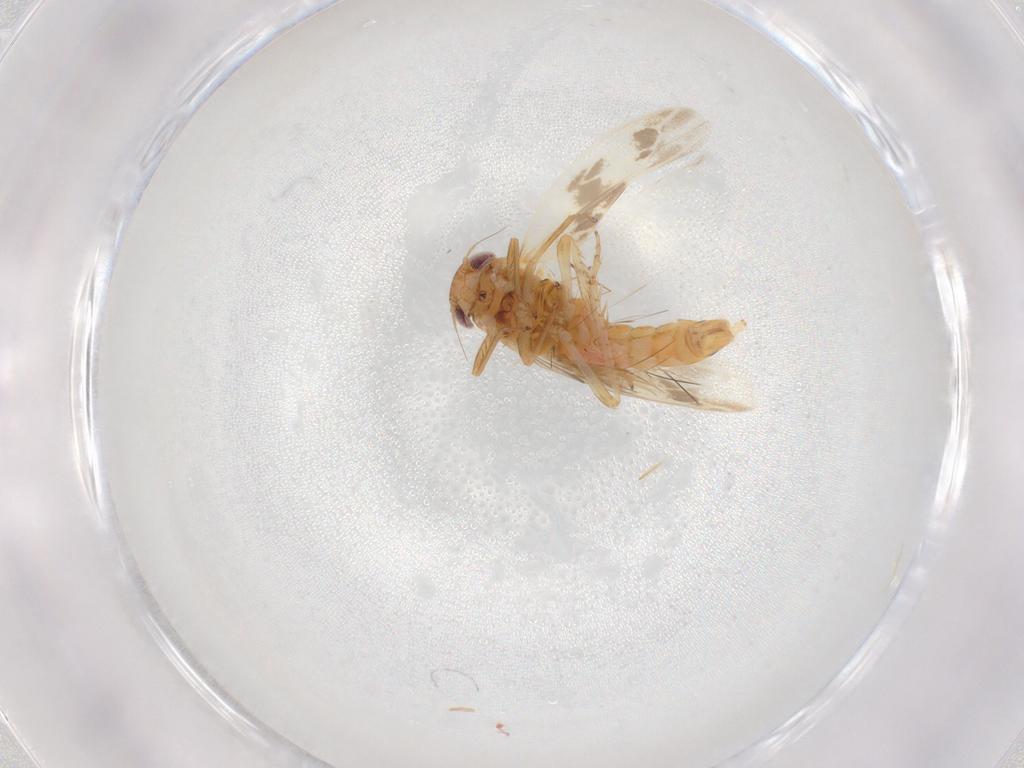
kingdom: Animalia
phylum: Arthropoda
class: Insecta
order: Hemiptera
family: Cicadellidae
